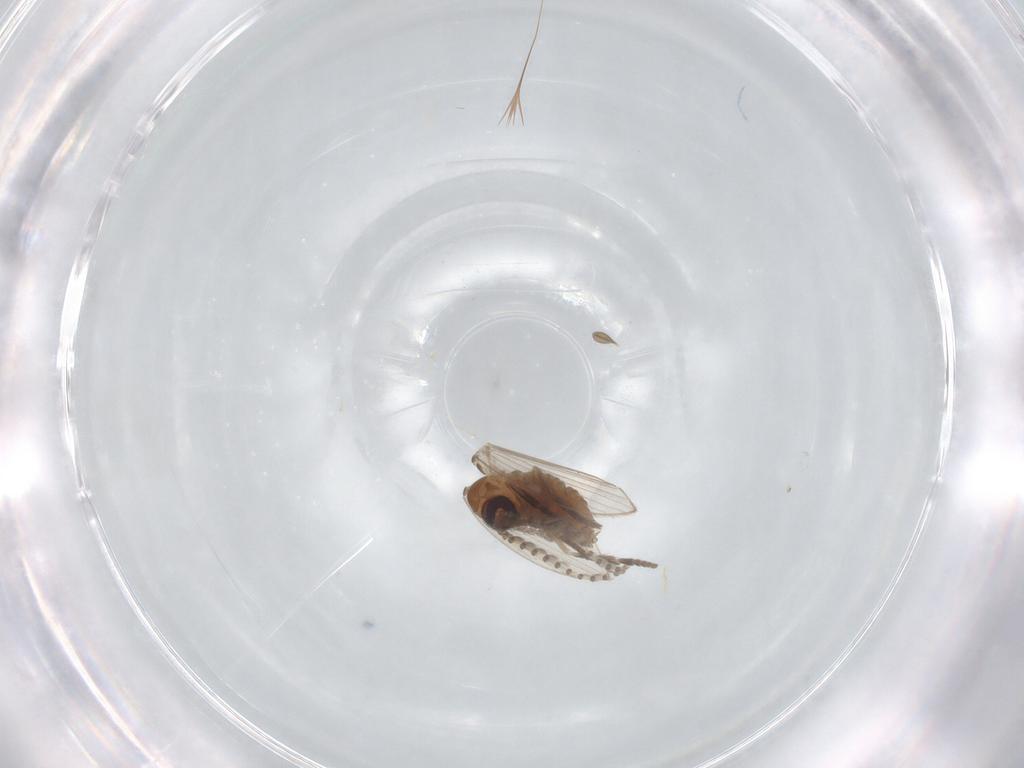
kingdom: Animalia
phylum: Arthropoda
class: Insecta
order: Diptera
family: Psychodidae
